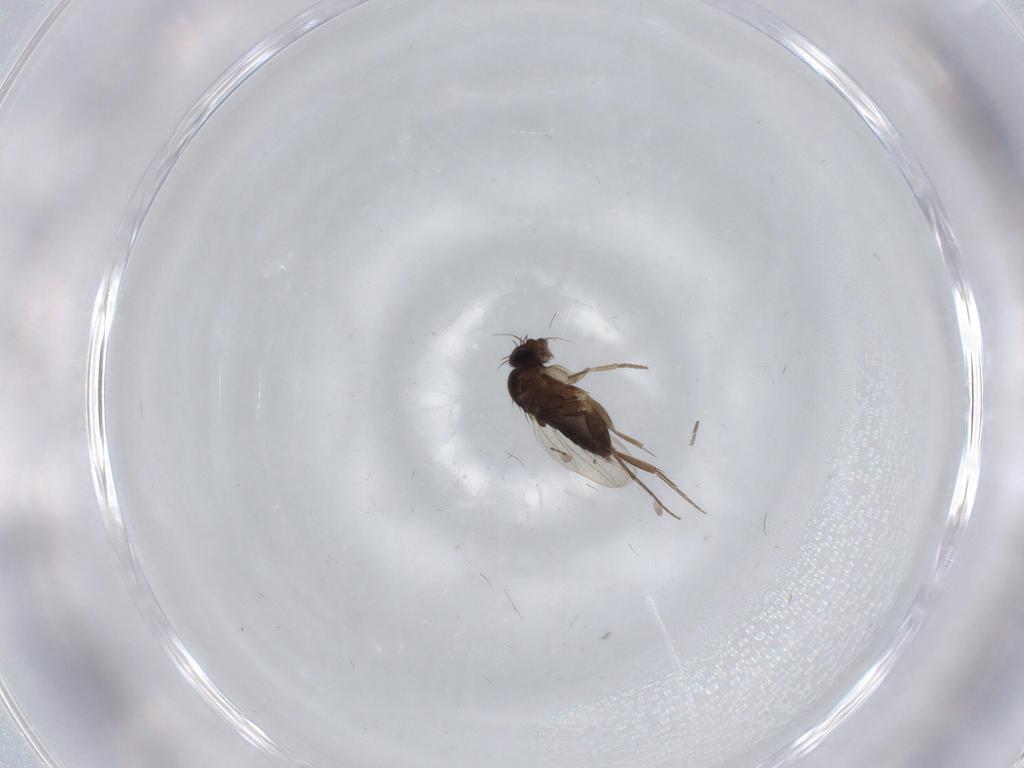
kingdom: Animalia
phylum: Arthropoda
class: Insecta
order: Diptera
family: Phoridae
